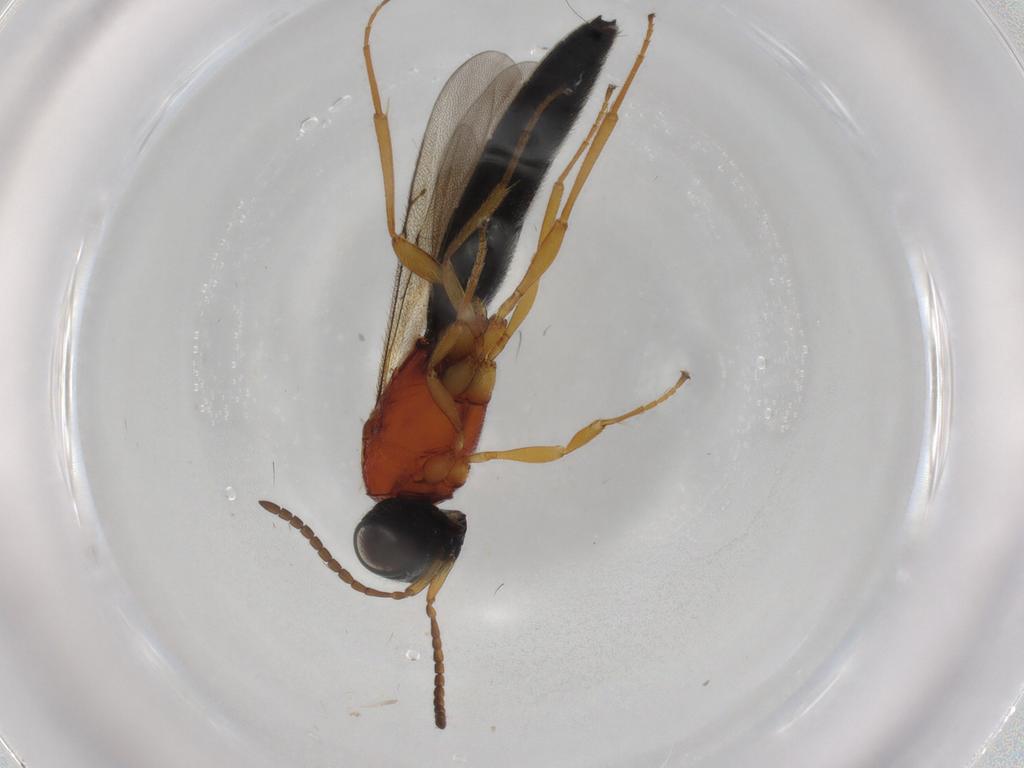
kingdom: Animalia
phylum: Arthropoda
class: Insecta
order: Hymenoptera
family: Scelionidae
